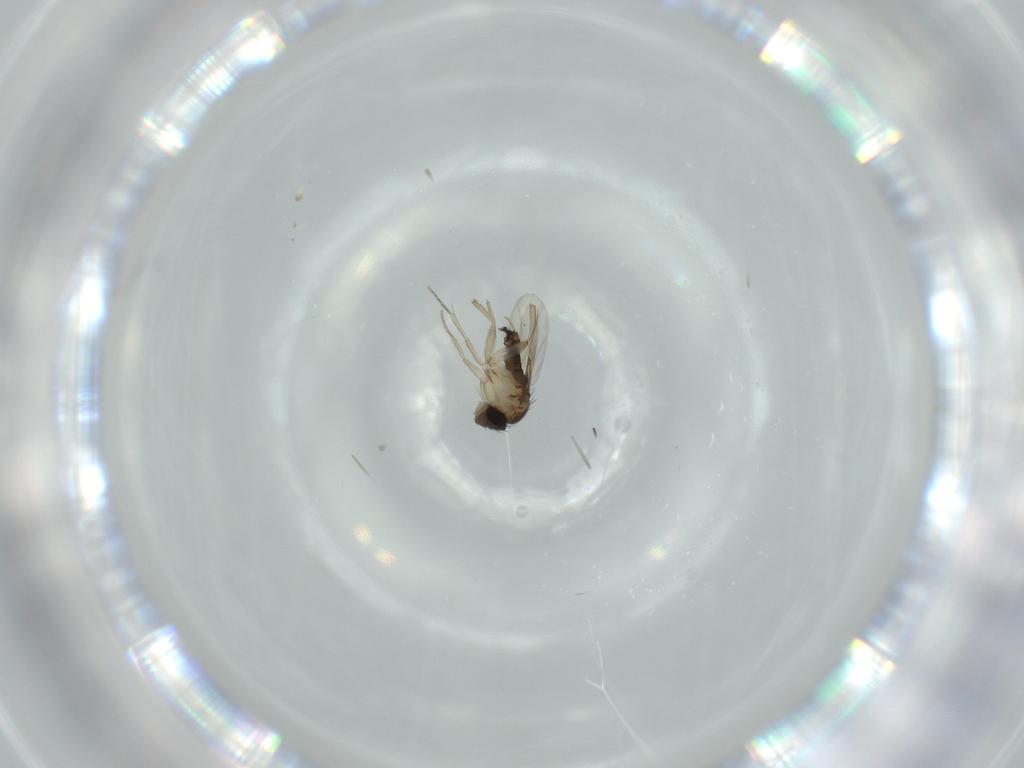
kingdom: Animalia
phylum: Arthropoda
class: Insecta
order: Diptera
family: Phoridae
